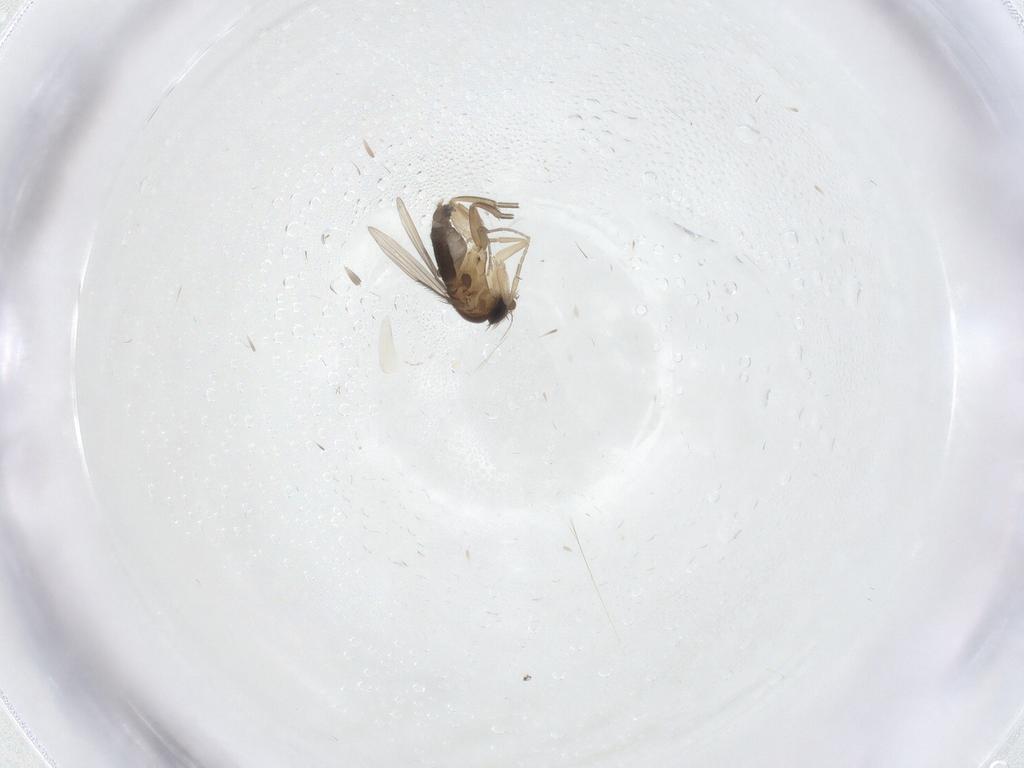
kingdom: Animalia
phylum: Arthropoda
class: Insecta
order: Diptera
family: Phoridae
